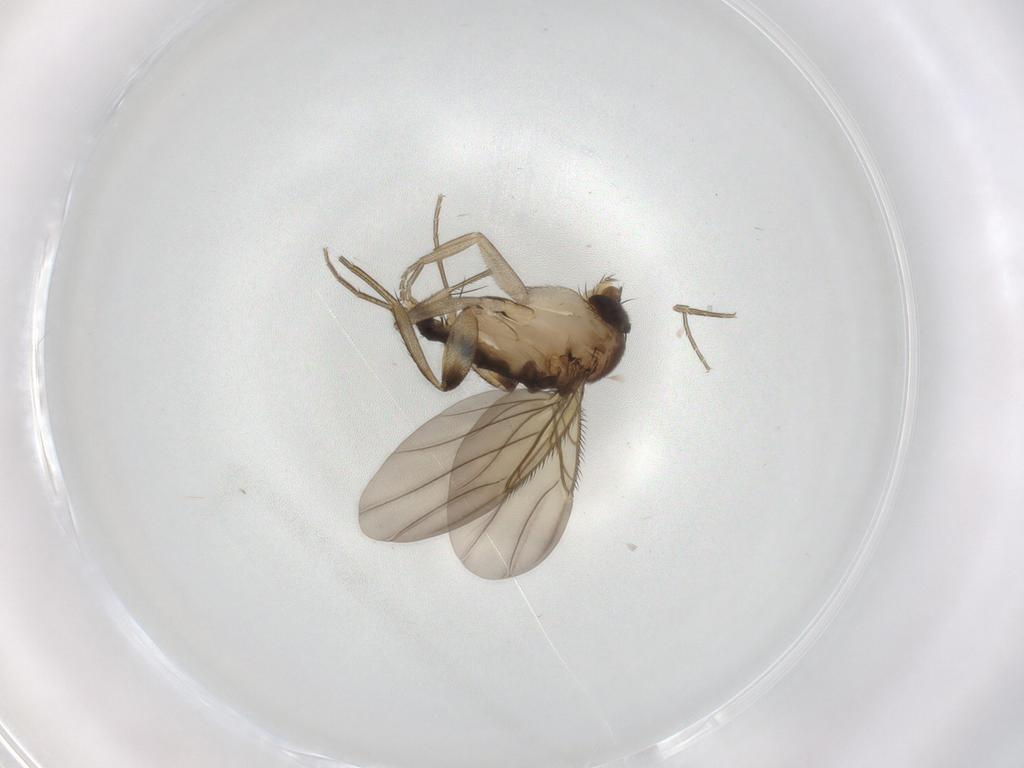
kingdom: Animalia
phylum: Arthropoda
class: Insecta
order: Diptera
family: Phoridae
